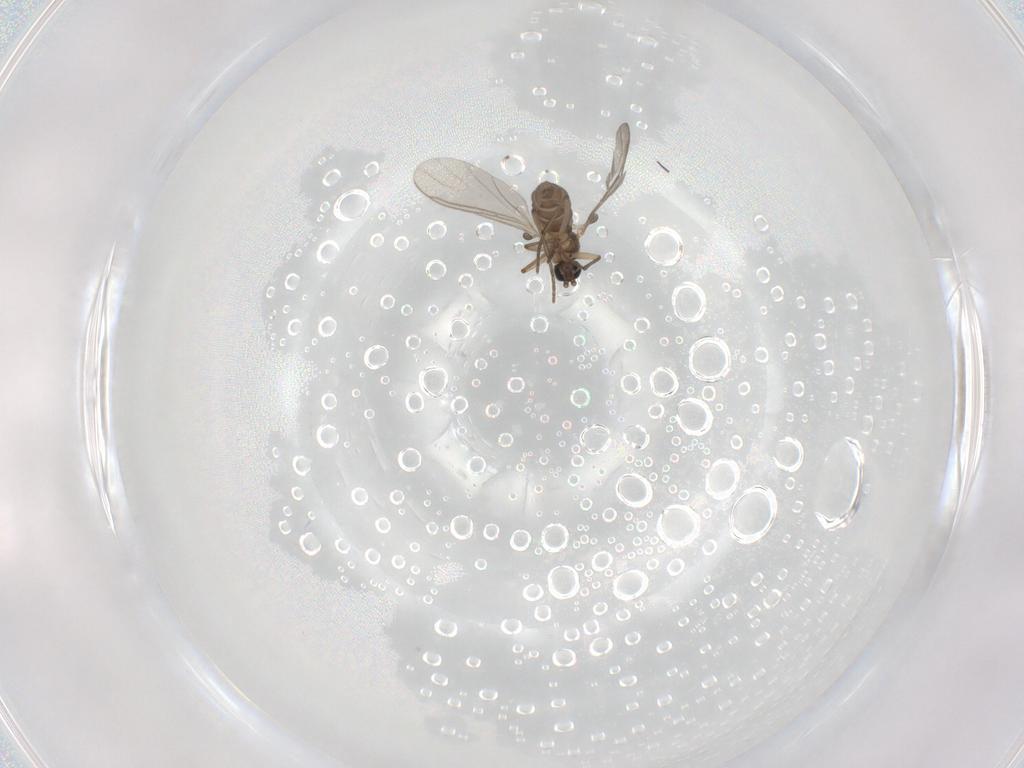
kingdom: Animalia
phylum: Arthropoda
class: Insecta
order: Diptera
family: Sciaridae
